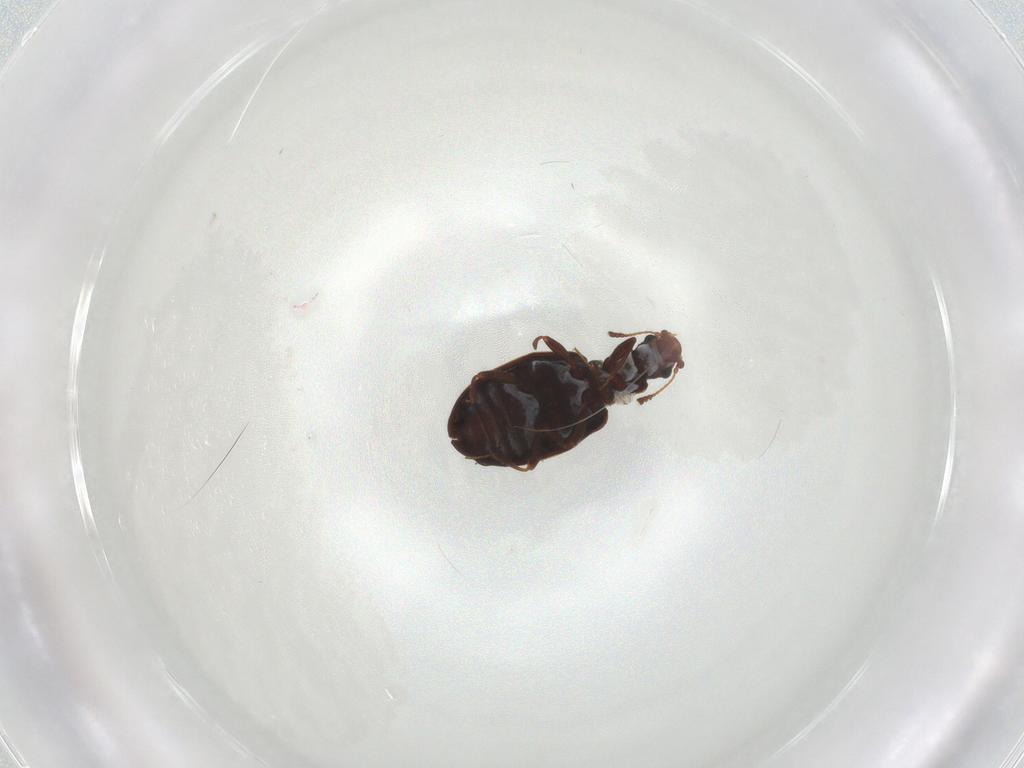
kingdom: Animalia
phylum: Arthropoda
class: Insecta
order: Coleoptera
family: Latridiidae
